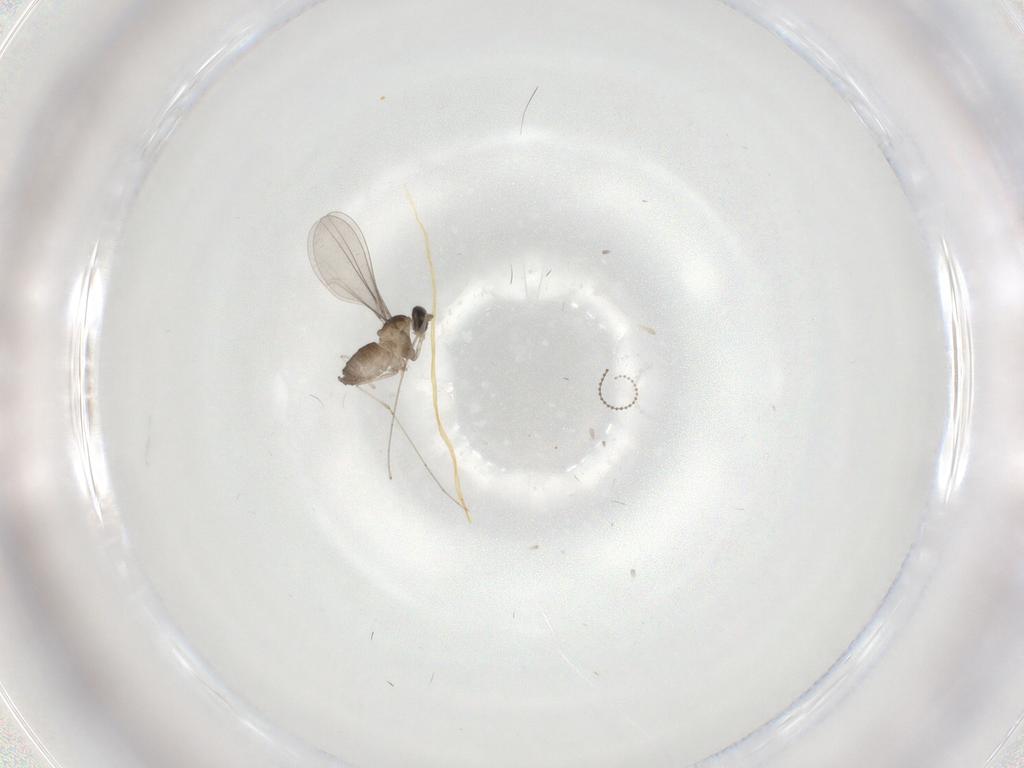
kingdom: Animalia
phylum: Arthropoda
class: Insecta
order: Diptera
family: Cecidomyiidae
